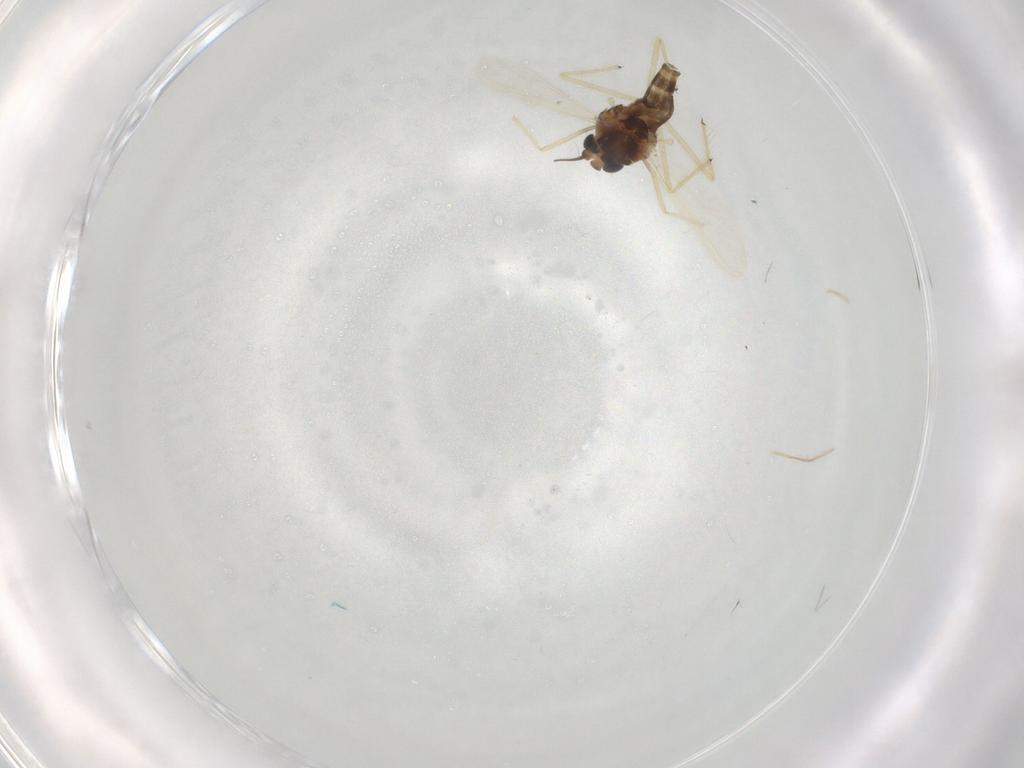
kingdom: Animalia
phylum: Arthropoda
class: Insecta
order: Diptera
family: Chironomidae
